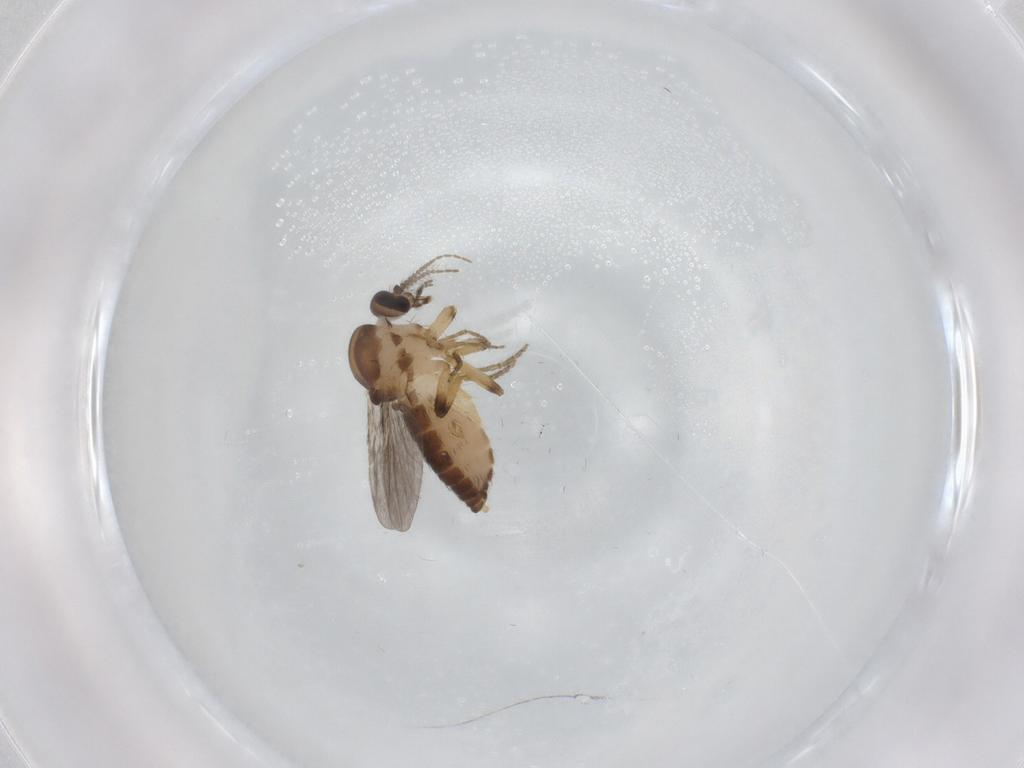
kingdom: Animalia
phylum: Arthropoda
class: Insecta
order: Diptera
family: Ceratopogonidae
